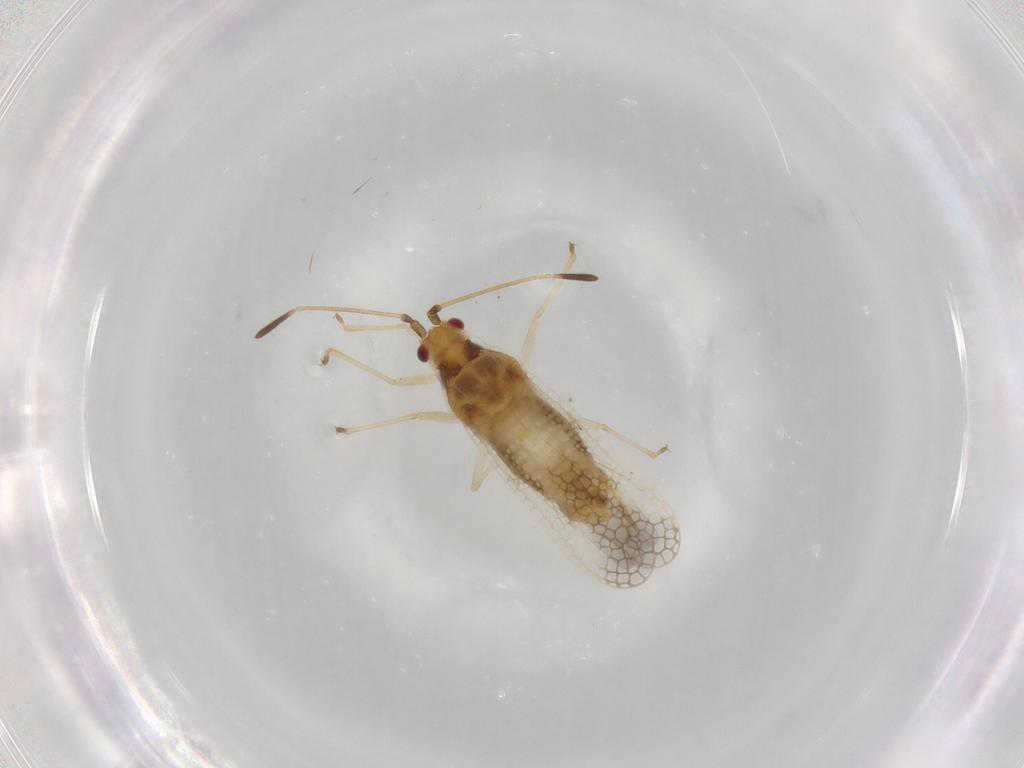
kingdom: Animalia
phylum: Arthropoda
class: Insecta
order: Hemiptera
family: Tingidae
